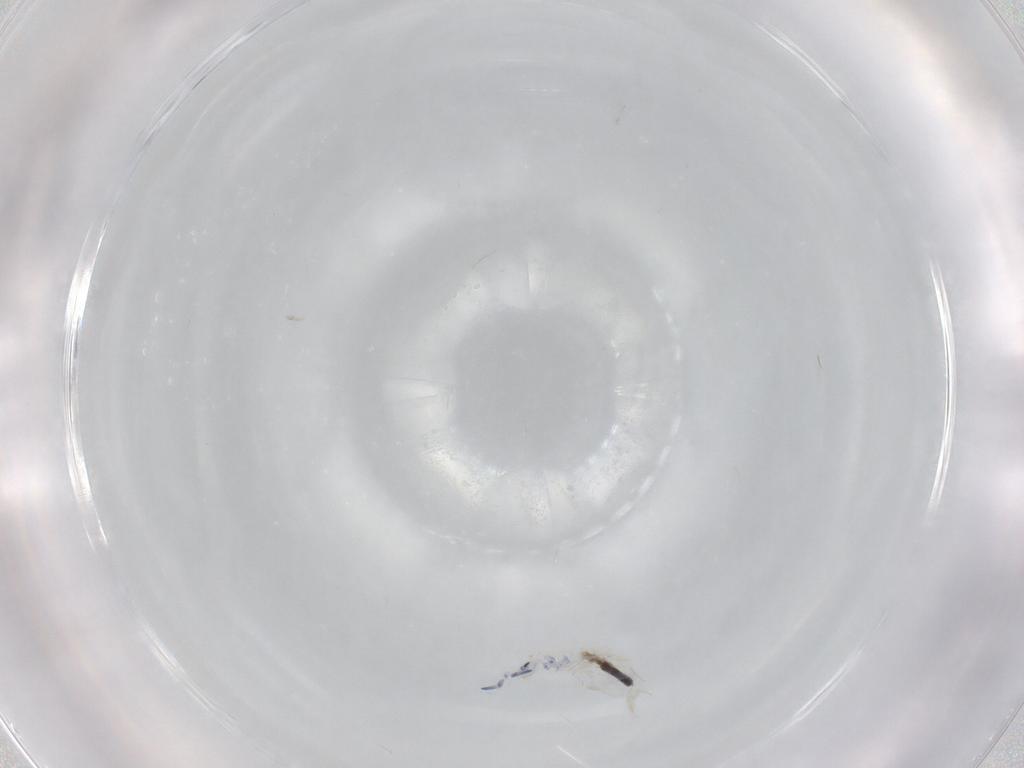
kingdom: Animalia
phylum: Arthropoda
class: Collembola
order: Entomobryomorpha
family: Entomobryidae
